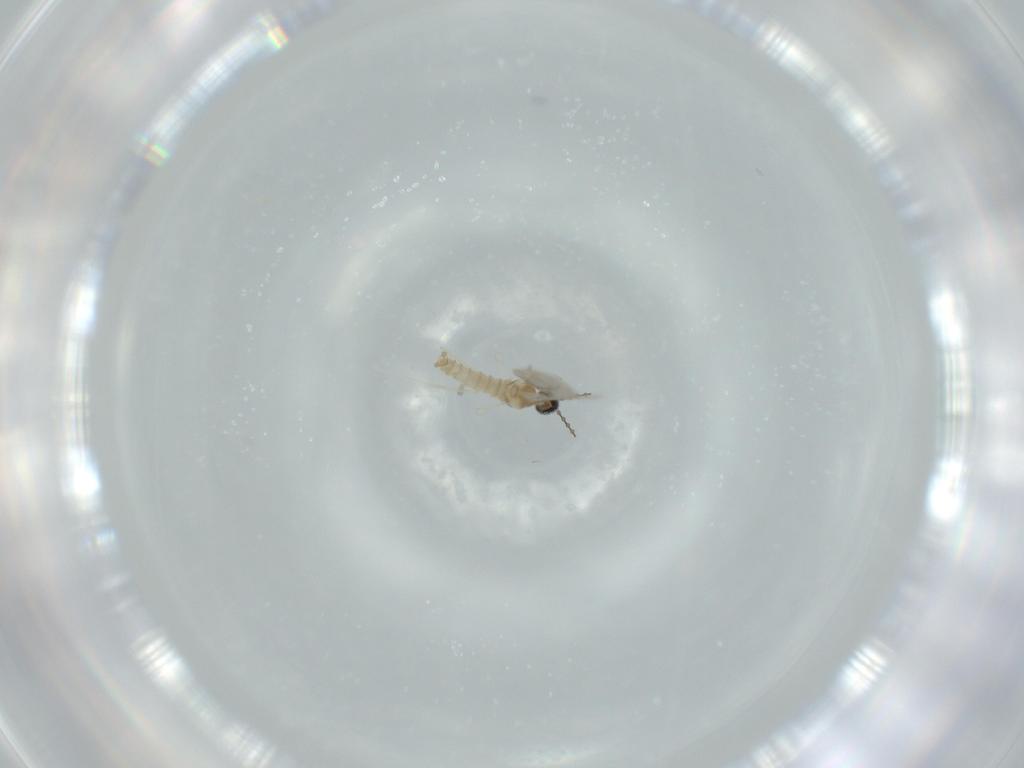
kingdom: Animalia
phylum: Arthropoda
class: Insecta
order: Diptera
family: Cecidomyiidae
